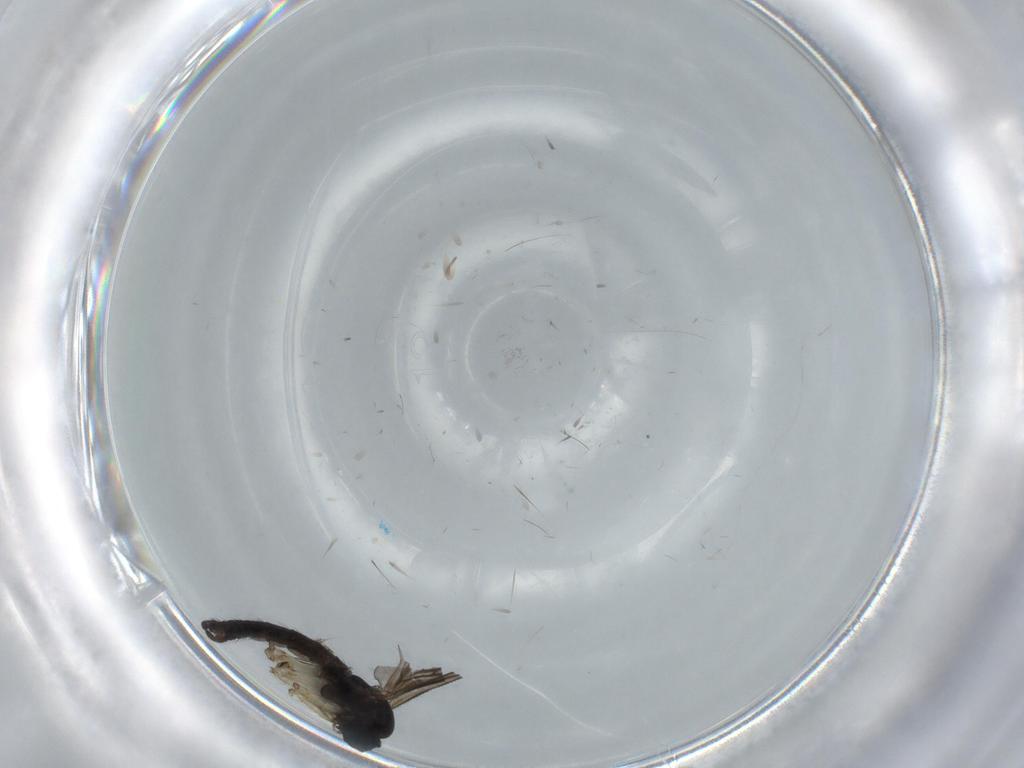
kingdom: Animalia
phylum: Arthropoda
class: Insecta
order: Diptera
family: Sciaridae
